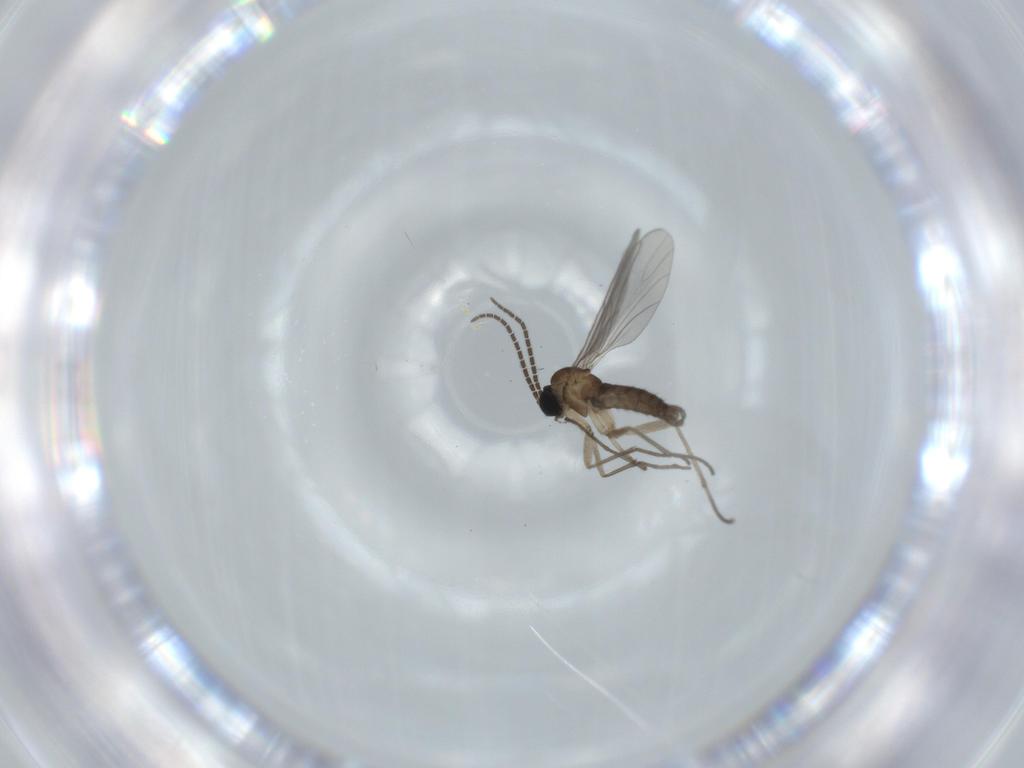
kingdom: Animalia
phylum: Arthropoda
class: Insecta
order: Diptera
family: Sciaridae
